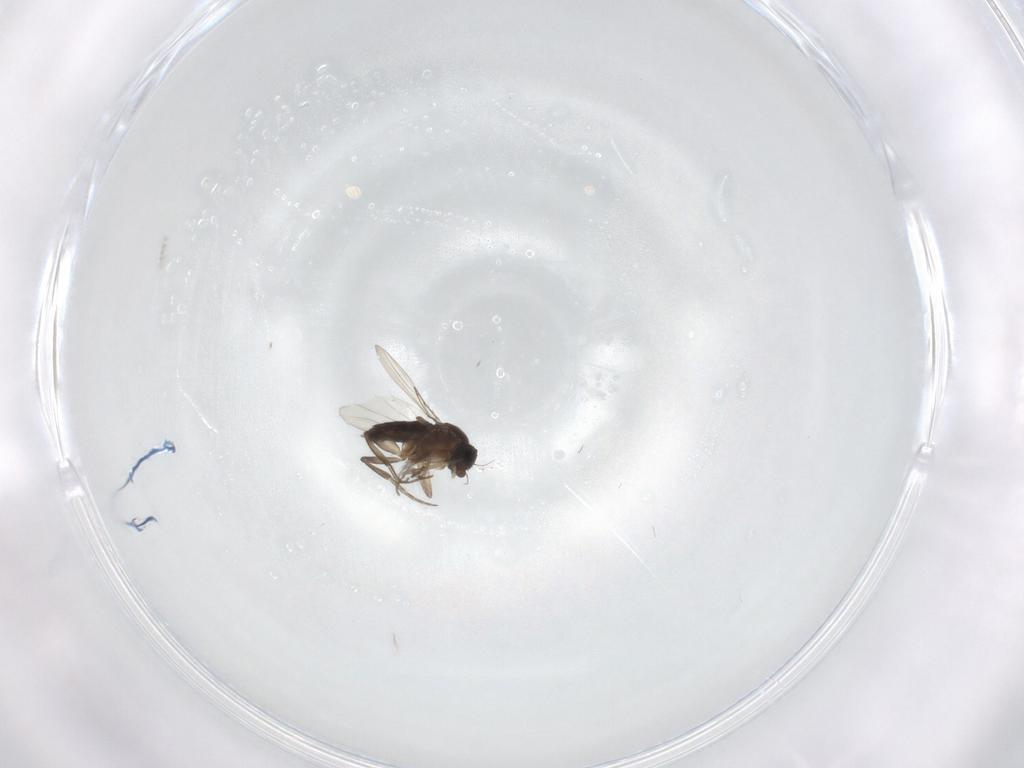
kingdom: Animalia
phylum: Arthropoda
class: Insecta
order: Diptera
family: Phoridae
